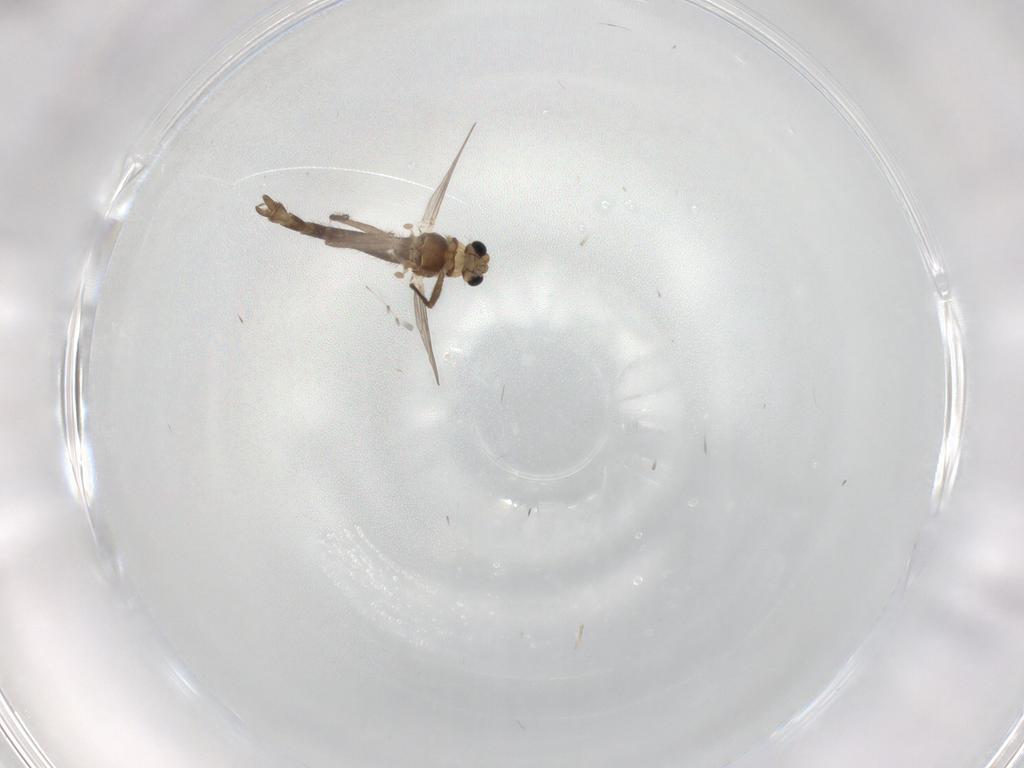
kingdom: Animalia
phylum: Arthropoda
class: Insecta
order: Diptera
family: Chironomidae
